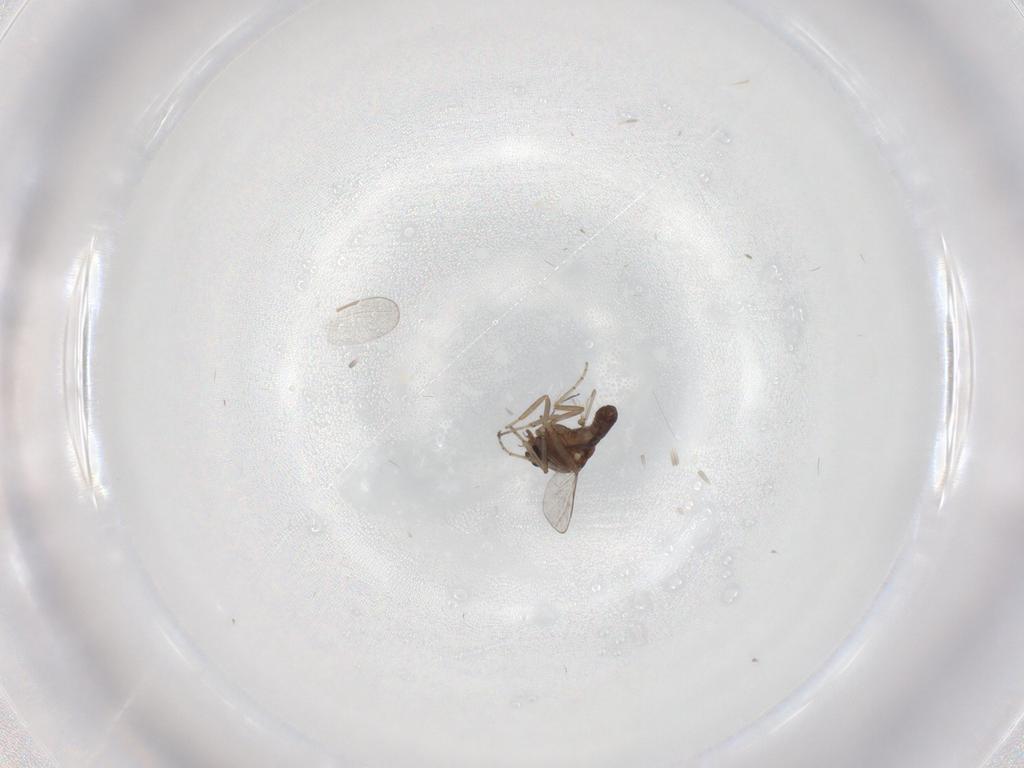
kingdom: Animalia
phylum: Arthropoda
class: Insecta
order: Diptera
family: Ceratopogonidae
